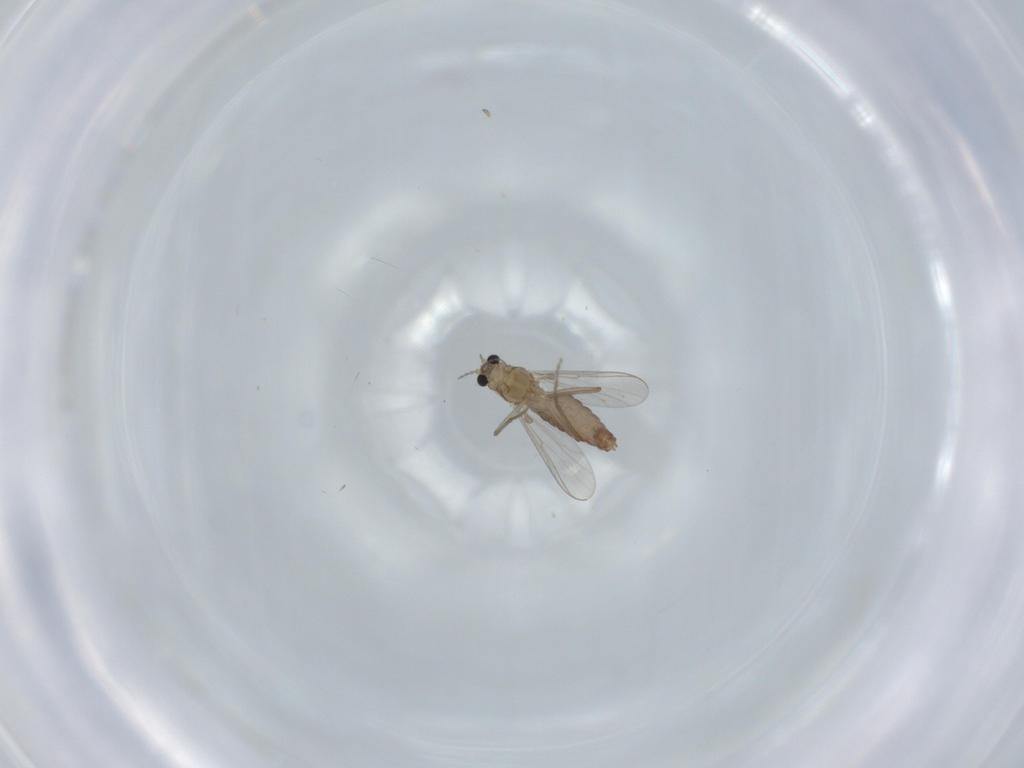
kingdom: Animalia
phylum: Arthropoda
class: Insecta
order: Diptera
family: Chironomidae
